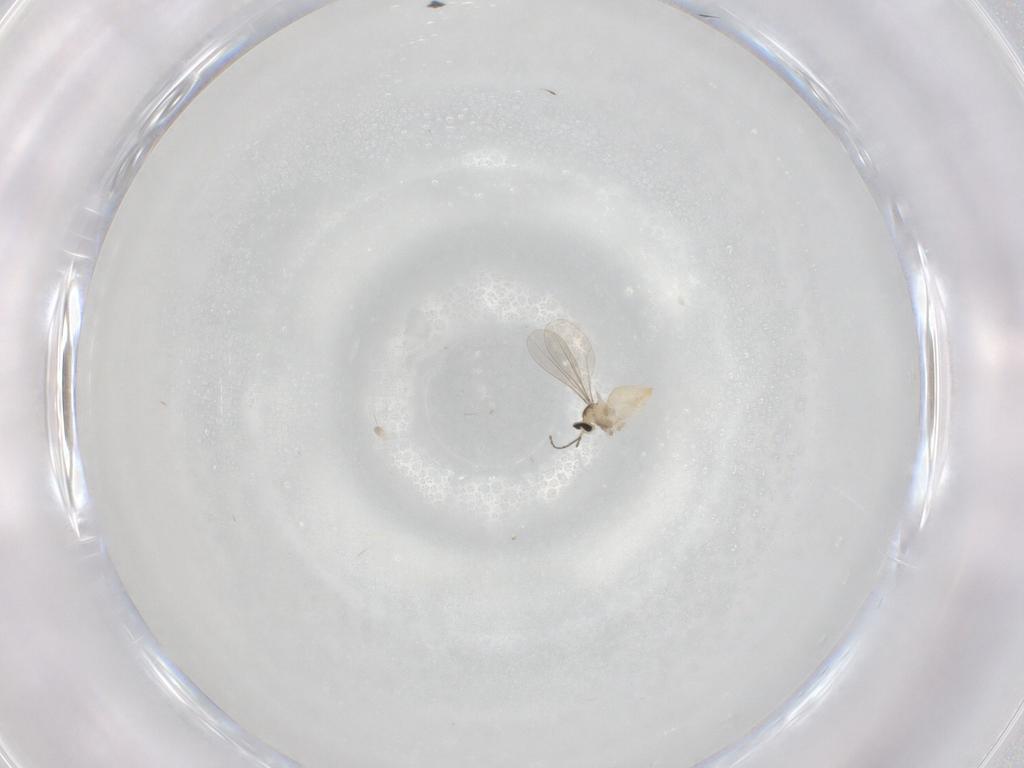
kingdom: Animalia
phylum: Arthropoda
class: Insecta
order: Diptera
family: Cecidomyiidae
